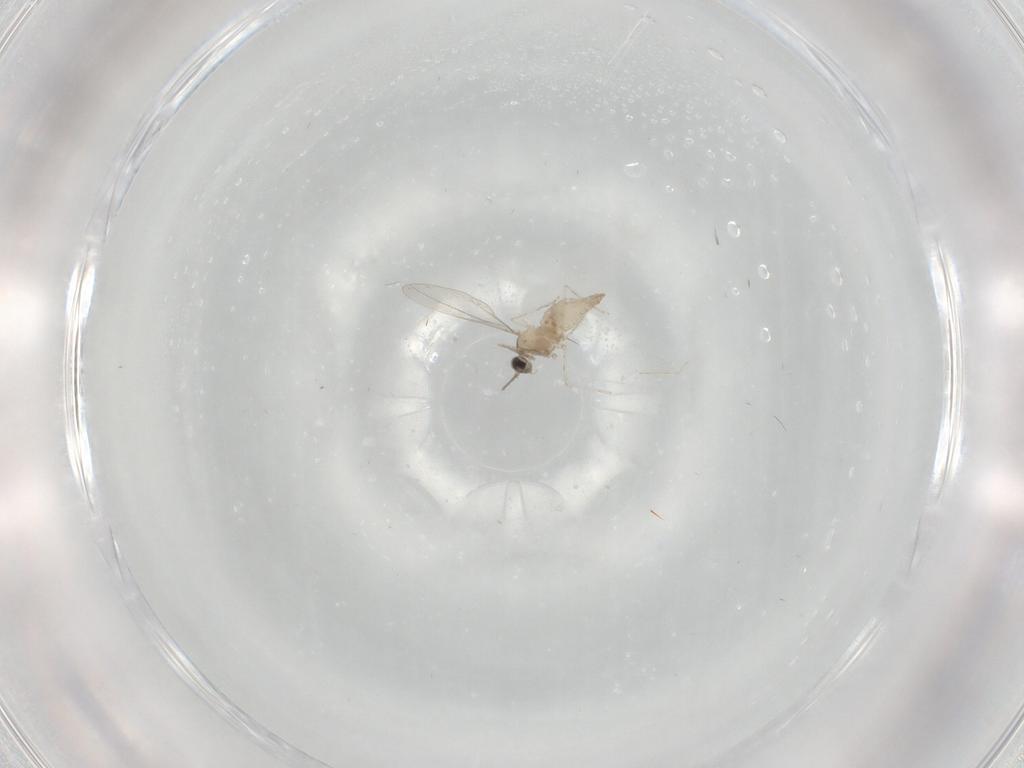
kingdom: Animalia
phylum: Arthropoda
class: Insecta
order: Diptera
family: Cecidomyiidae
